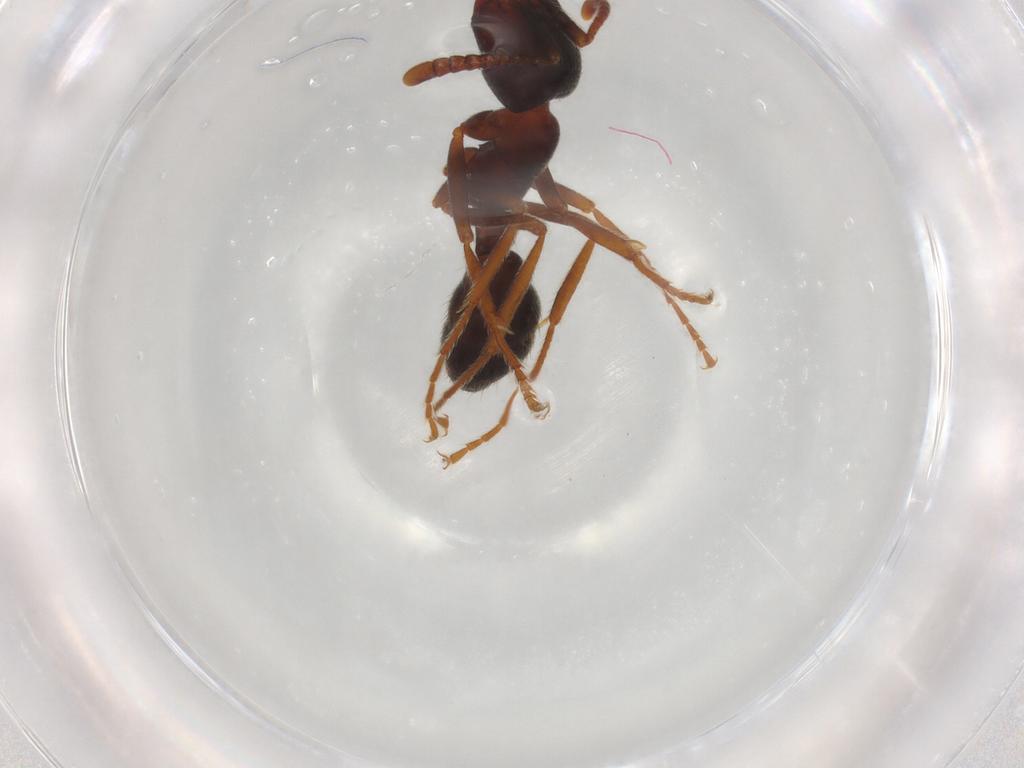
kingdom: Animalia
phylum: Arthropoda
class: Insecta
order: Hymenoptera
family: Formicidae
